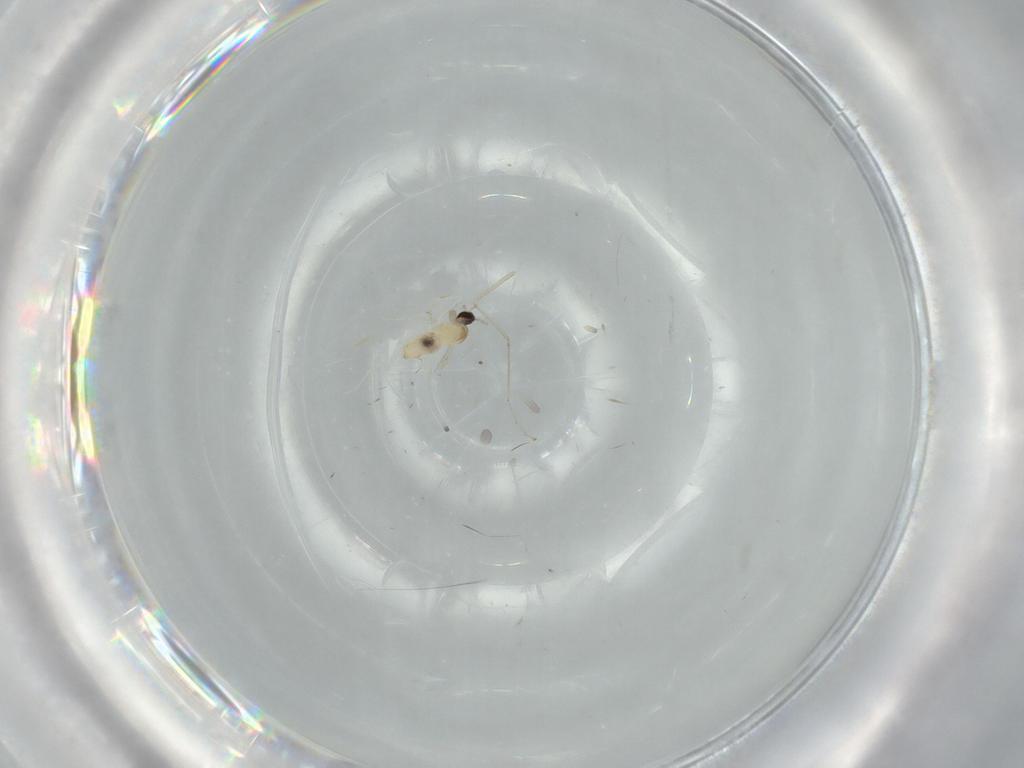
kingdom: Animalia
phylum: Arthropoda
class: Insecta
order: Diptera
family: Cecidomyiidae
